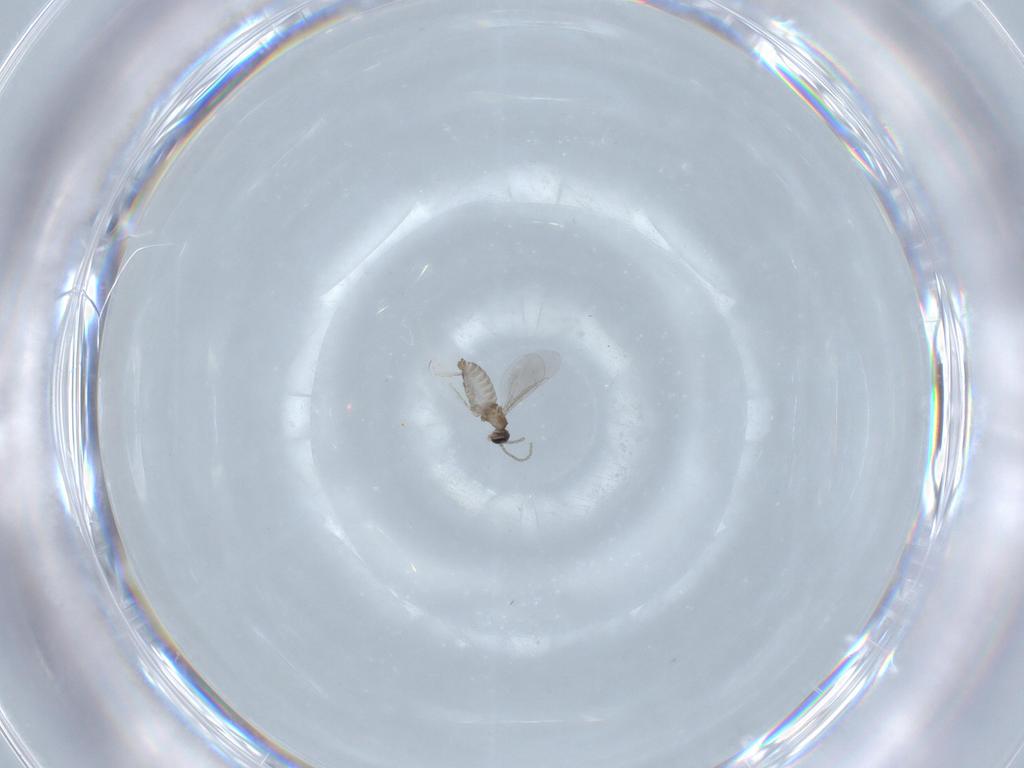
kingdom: Animalia
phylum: Arthropoda
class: Insecta
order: Diptera
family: Cecidomyiidae
